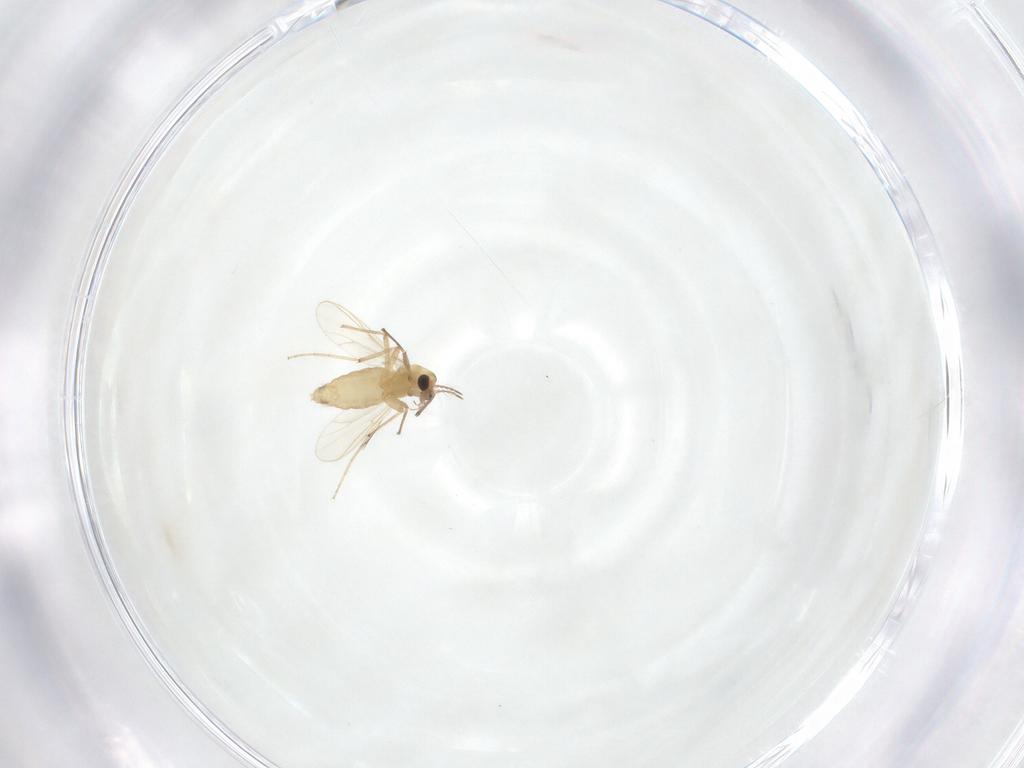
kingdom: Animalia
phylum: Arthropoda
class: Insecta
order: Diptera
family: Chironomidae
